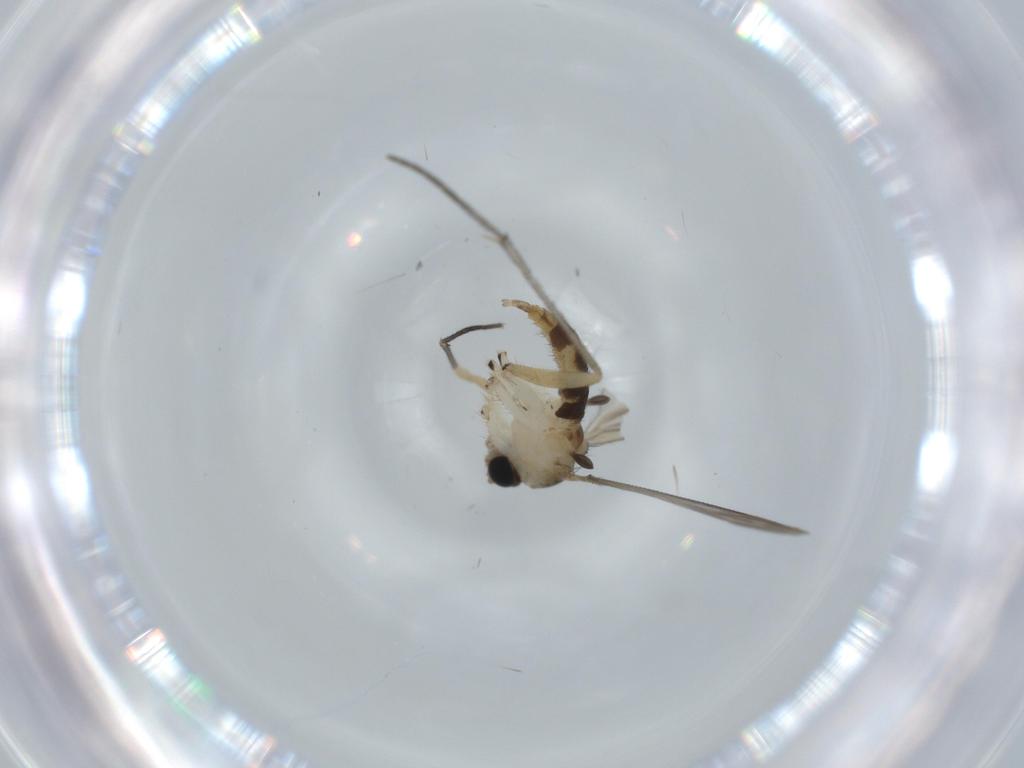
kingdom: Animalia
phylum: Arthropoda
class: Insecta
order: Diptera
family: Sciaridae
